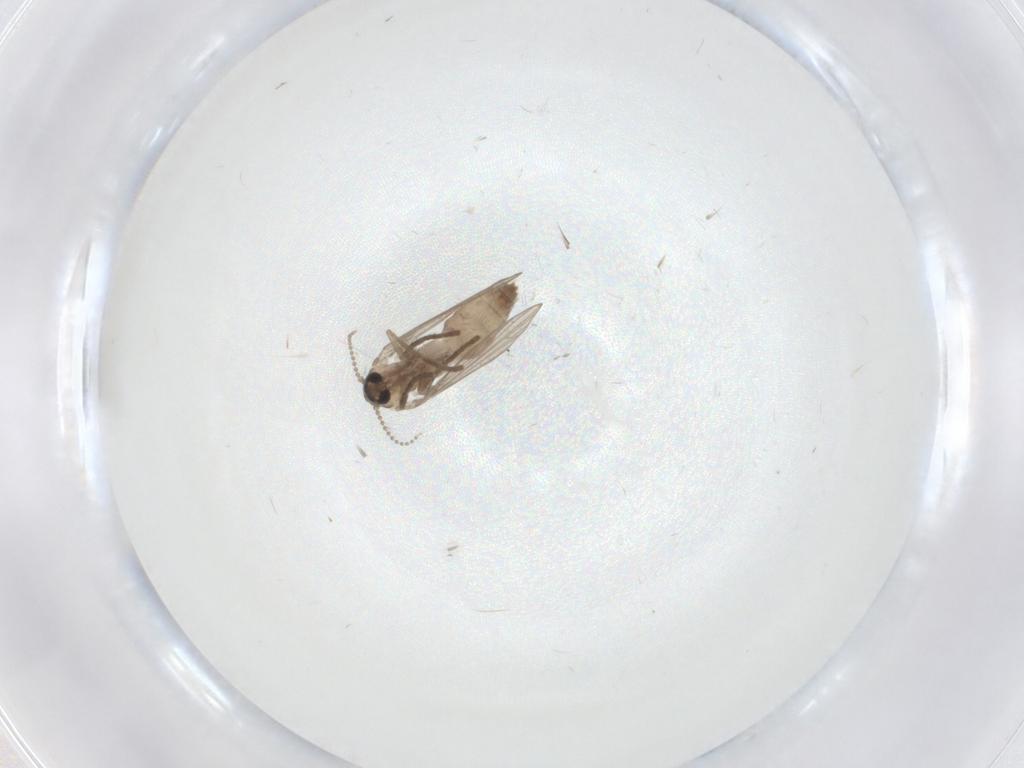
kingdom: Animalia
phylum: Arthropoda
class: Insecta
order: Diptera
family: Psychodidae
